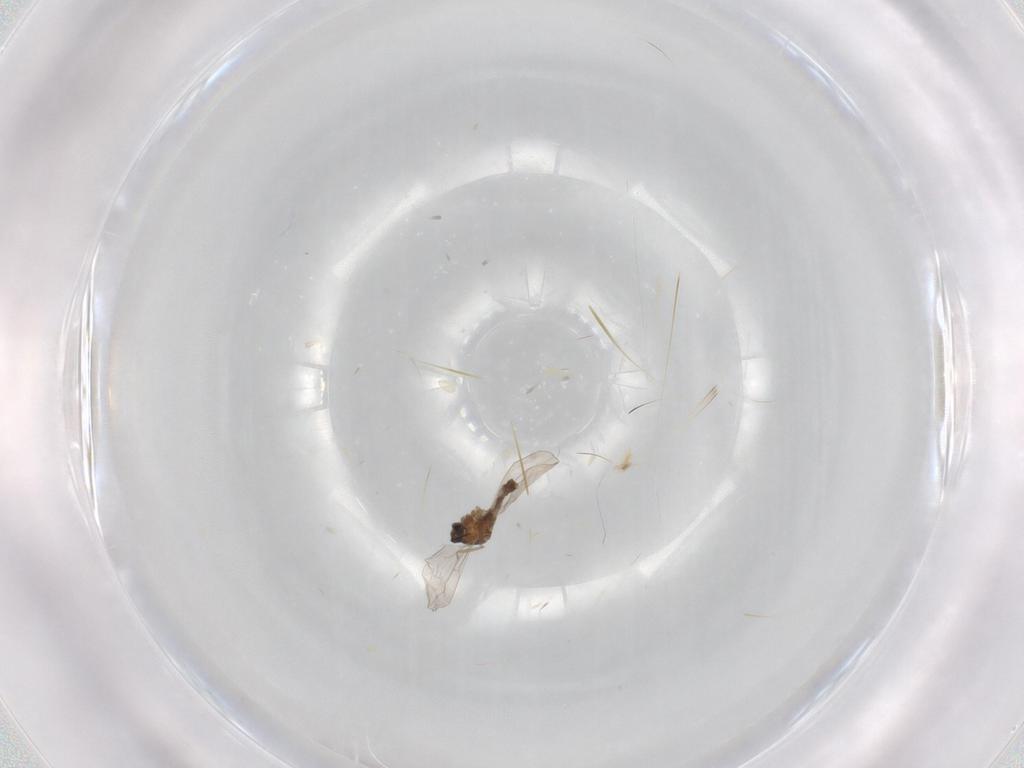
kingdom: Animalia
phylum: Arthropoda
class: Insecta
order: Diptera
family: Cecidomyiidae
